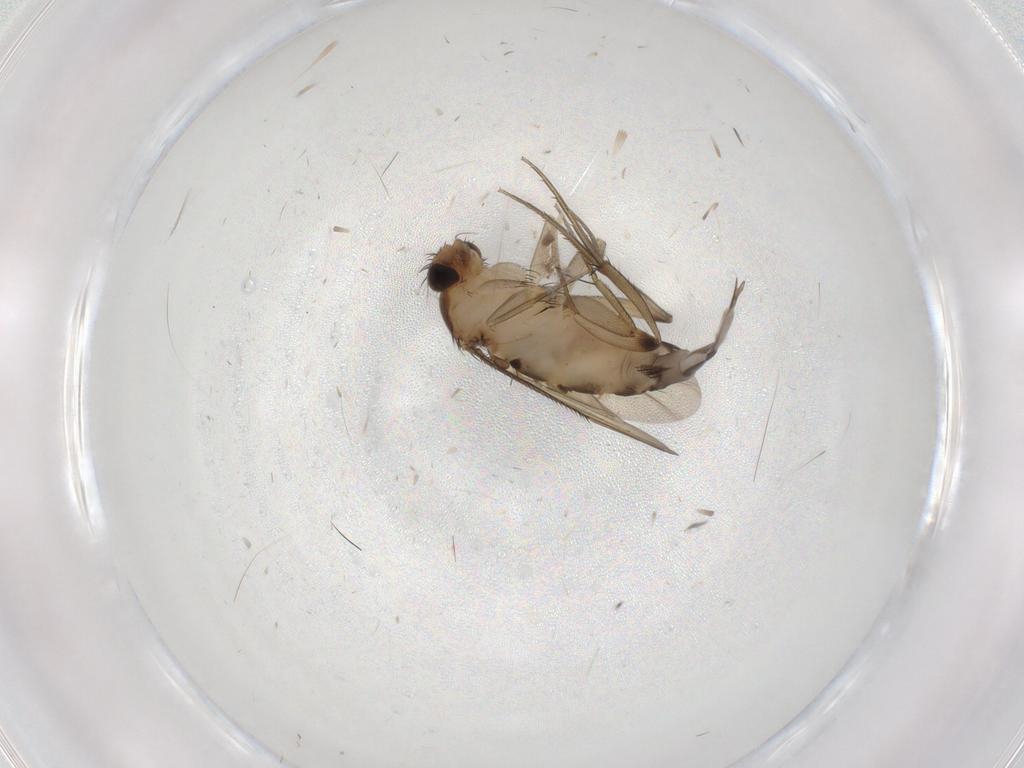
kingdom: Animalia
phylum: Arthropoda
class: Insecta
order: Diptera
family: Phoridae
